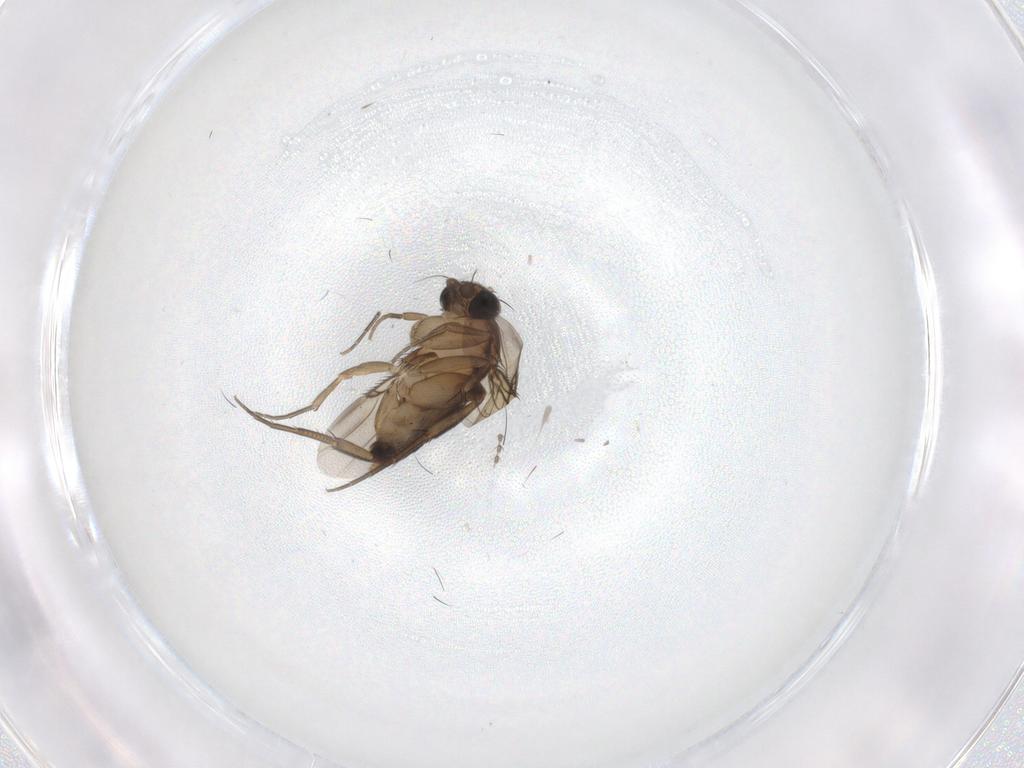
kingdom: Animalia
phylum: Arthropoda
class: Insecta
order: Diptera
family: Phoridae
